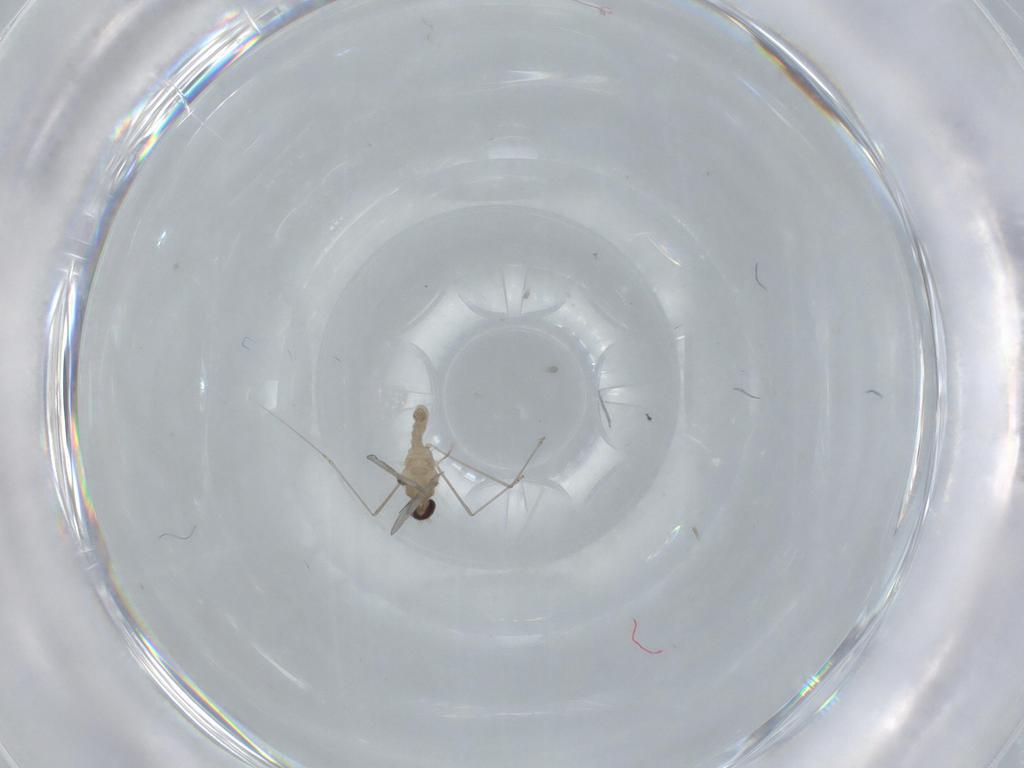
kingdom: Animalia
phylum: Arthropoda
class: Insecta
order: Diptera
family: Cecidomyiidae
